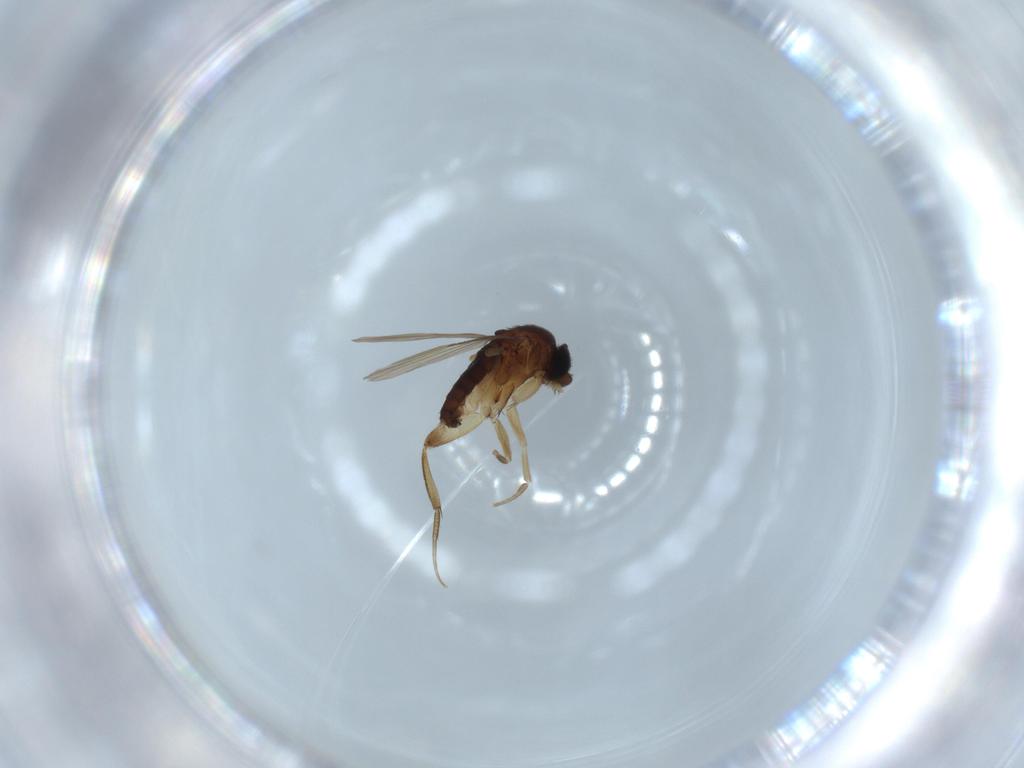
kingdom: Animalia
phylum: Arthropoda
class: Insecta
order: Diptera
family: Phoridae
